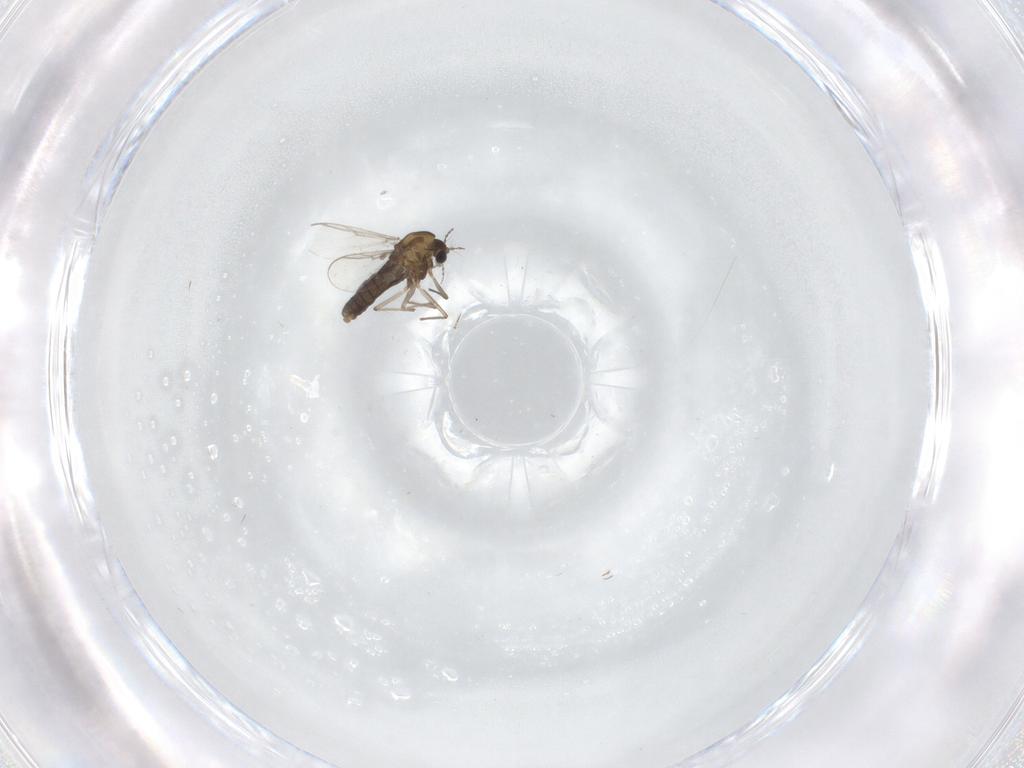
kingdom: Animalia
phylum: Arthropoda
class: Insecta
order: Diptera
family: Chironomidae
